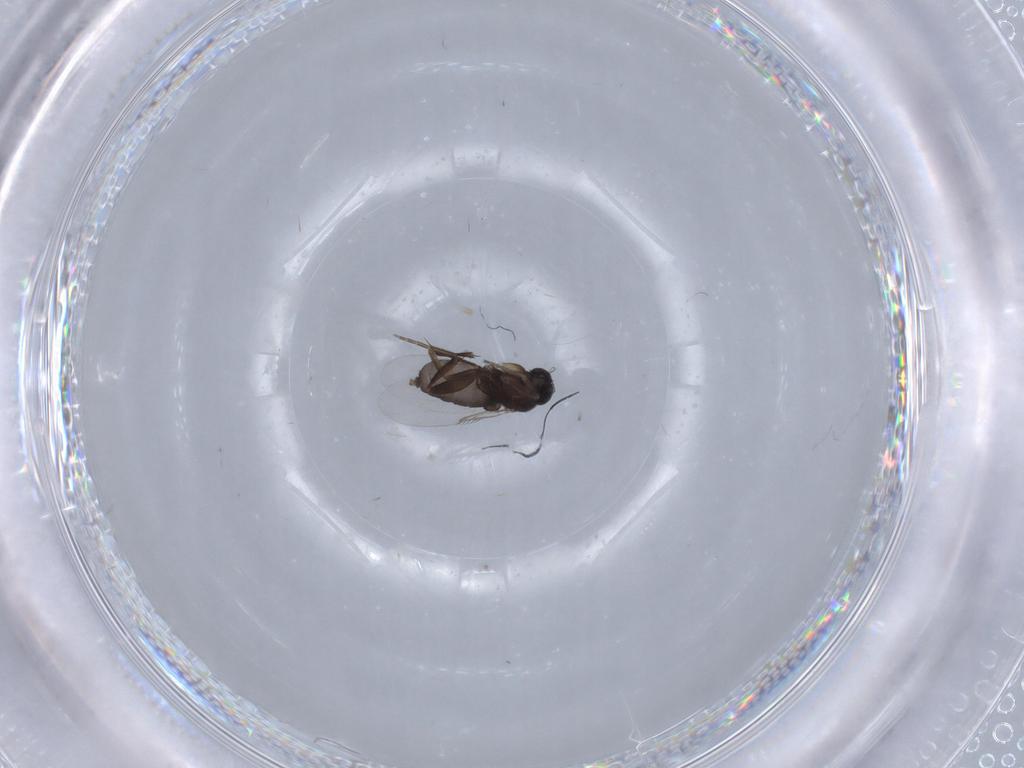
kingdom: Animalia
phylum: Arthropoda
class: Insecta
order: Diptera
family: Phoridae
